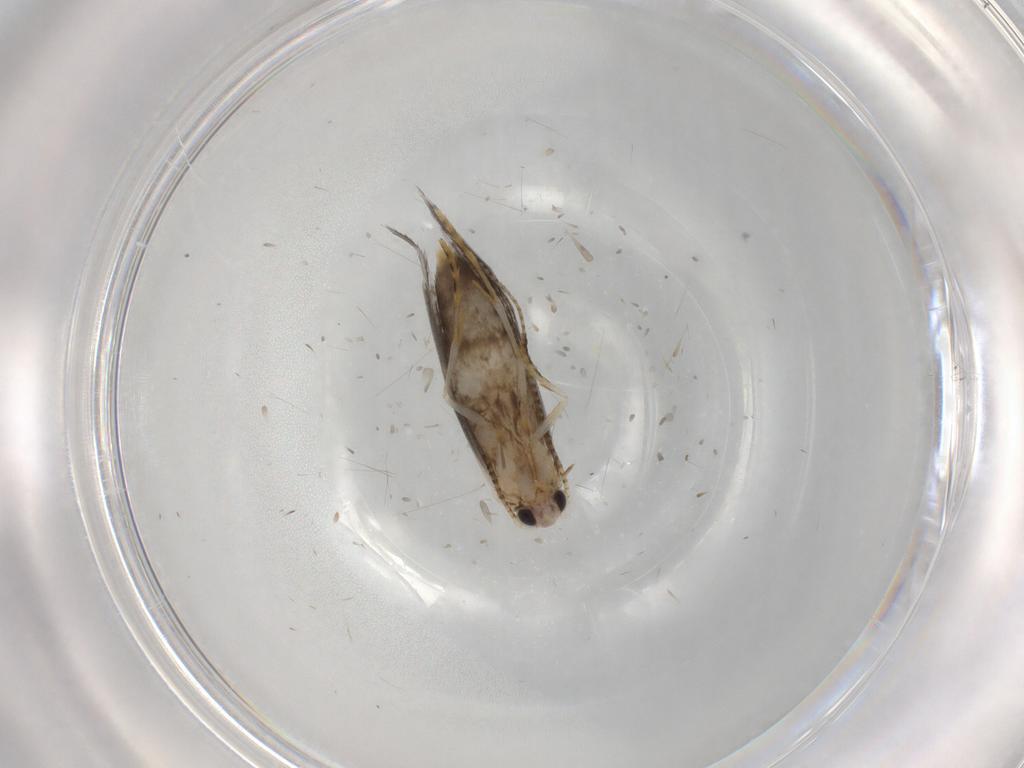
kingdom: Animalia
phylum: Arthropoda
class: Insecta
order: Lepidoptera
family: Tineidae
